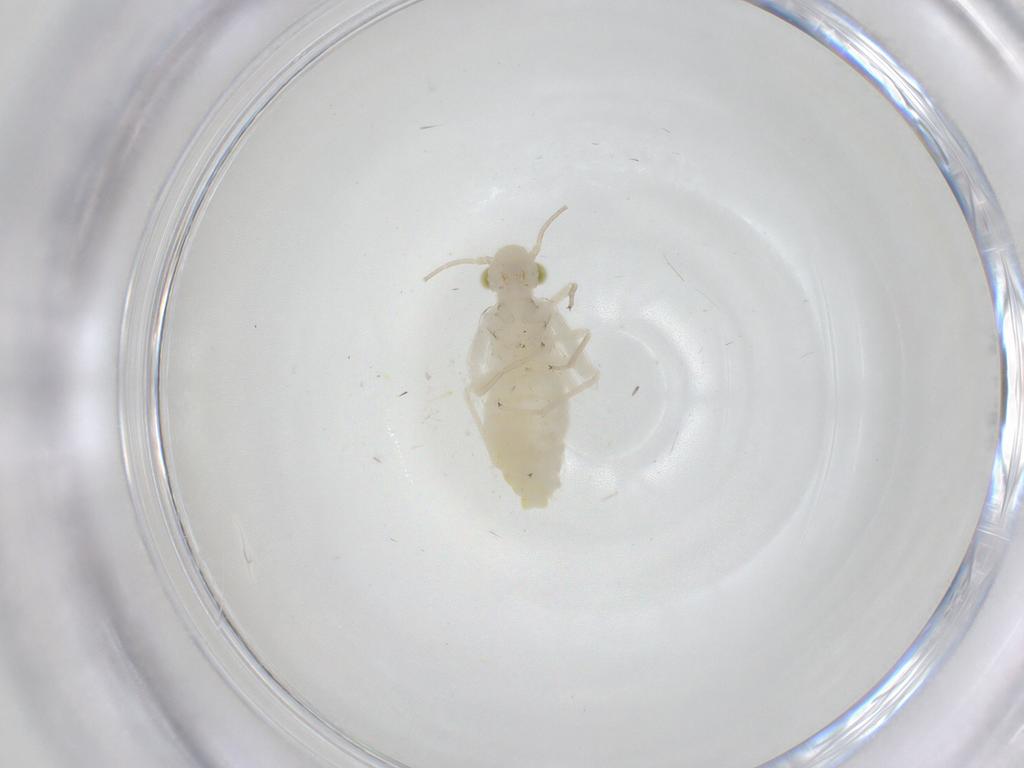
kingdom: Animalia
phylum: Arthropoda
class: Insecta
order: Psocodea
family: Caeciliusidae
